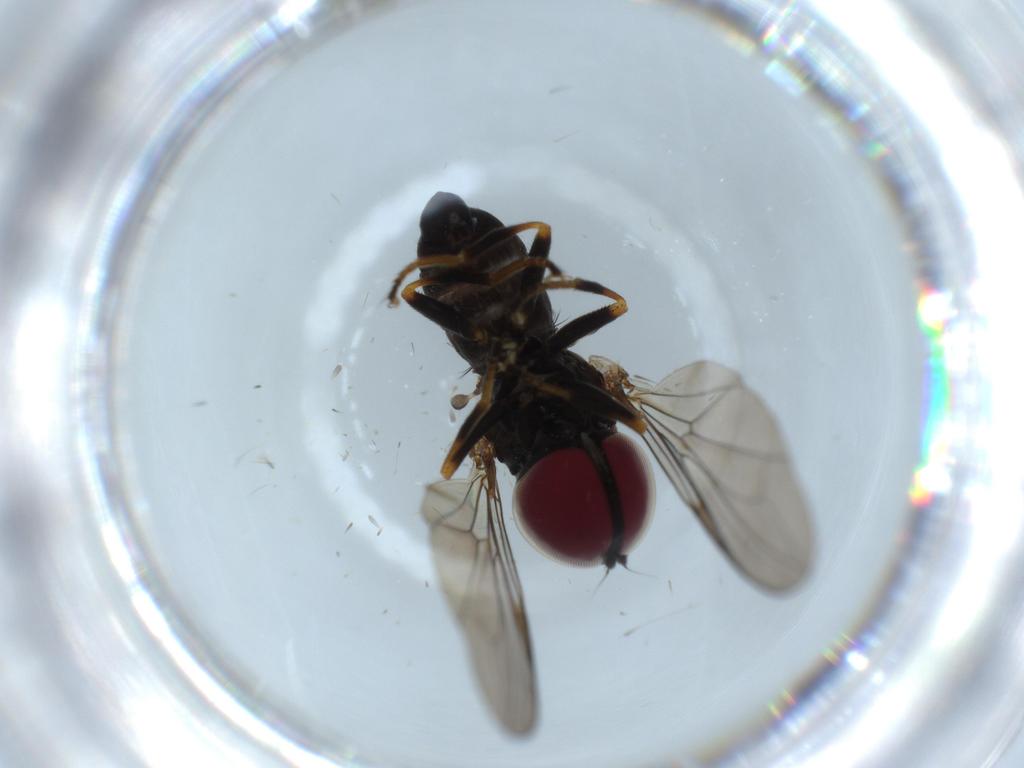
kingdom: Animalia
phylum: Arthropoda
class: Insecta
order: Diptera
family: Pipunculidae
